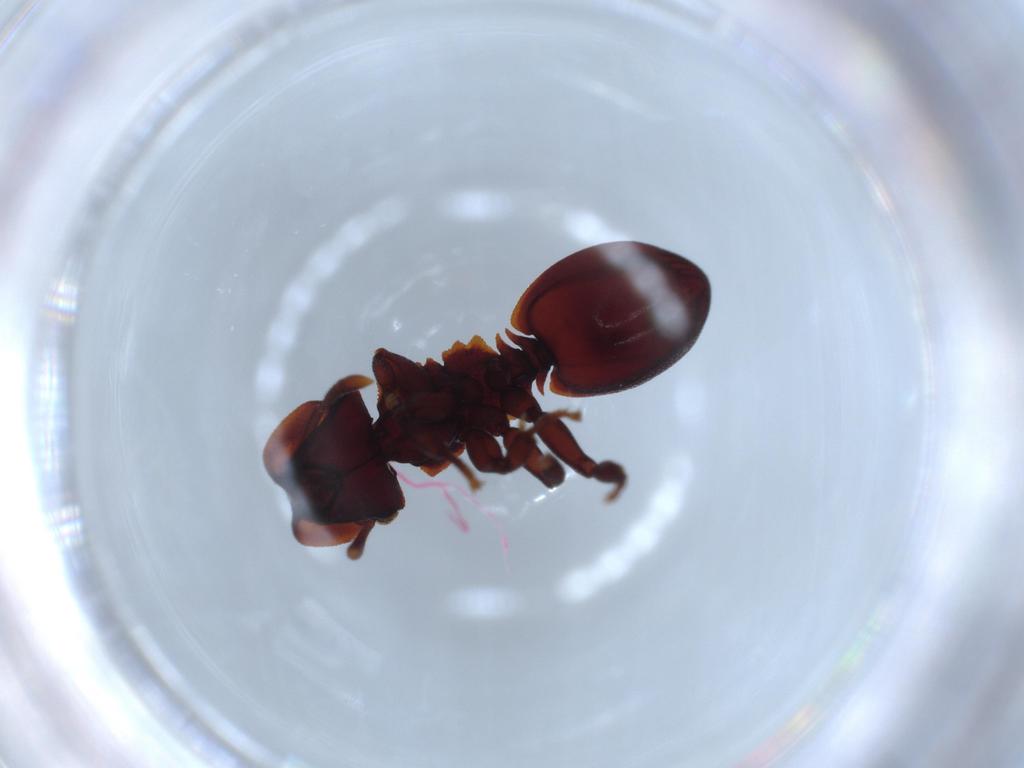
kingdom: Animalia
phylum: Arthropoda
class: Insecta
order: Hymenoptera
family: Formicidae
